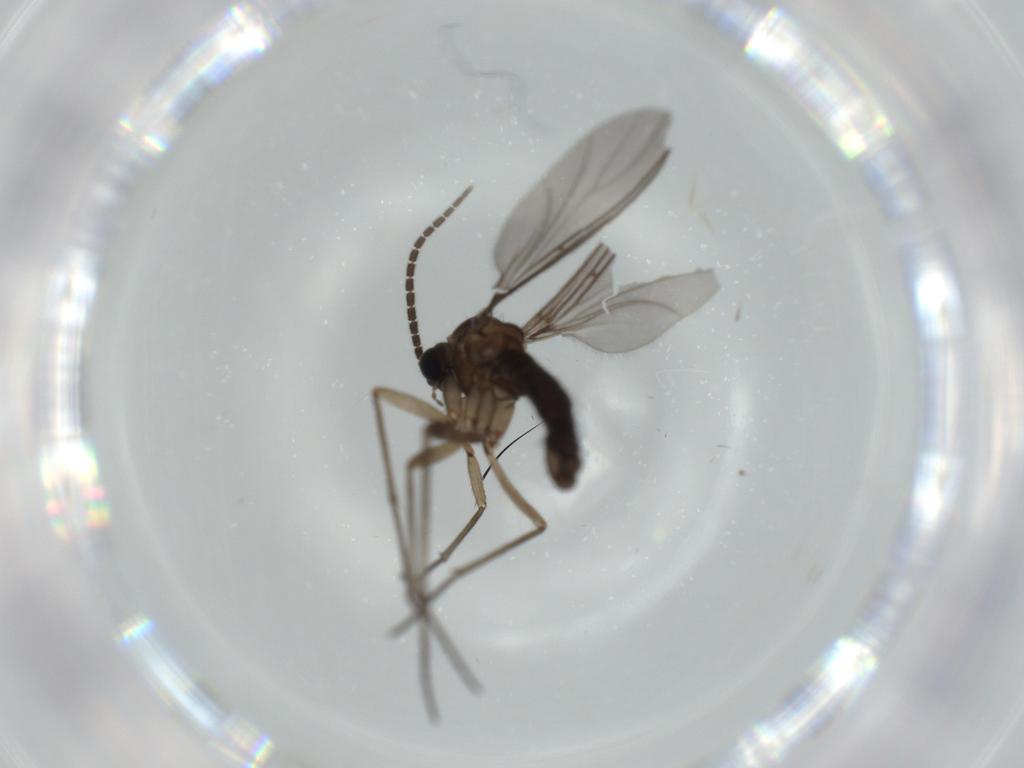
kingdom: Animalia
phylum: Arthropoda
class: Insecta
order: Diptera
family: Sciaridae
